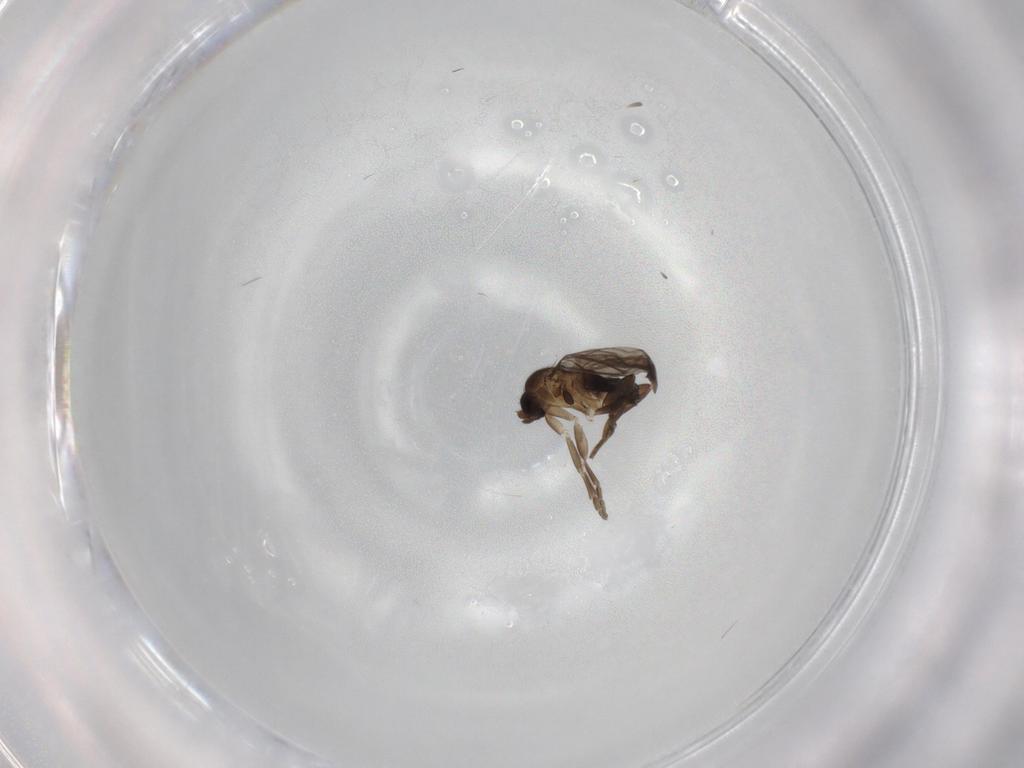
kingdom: Animalia
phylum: Arthropoda
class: Insecta
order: Diptera
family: Phoridae
